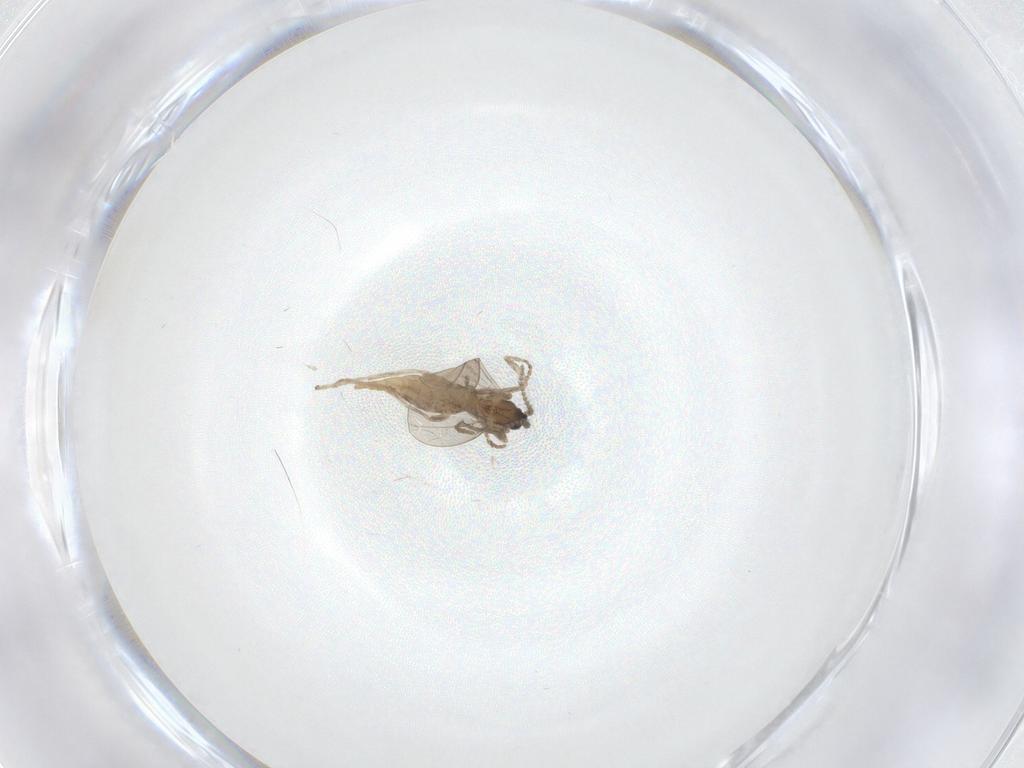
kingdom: Animalia
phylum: Arthropoda
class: Insecta
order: Diptera
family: Cecidomyiidae
